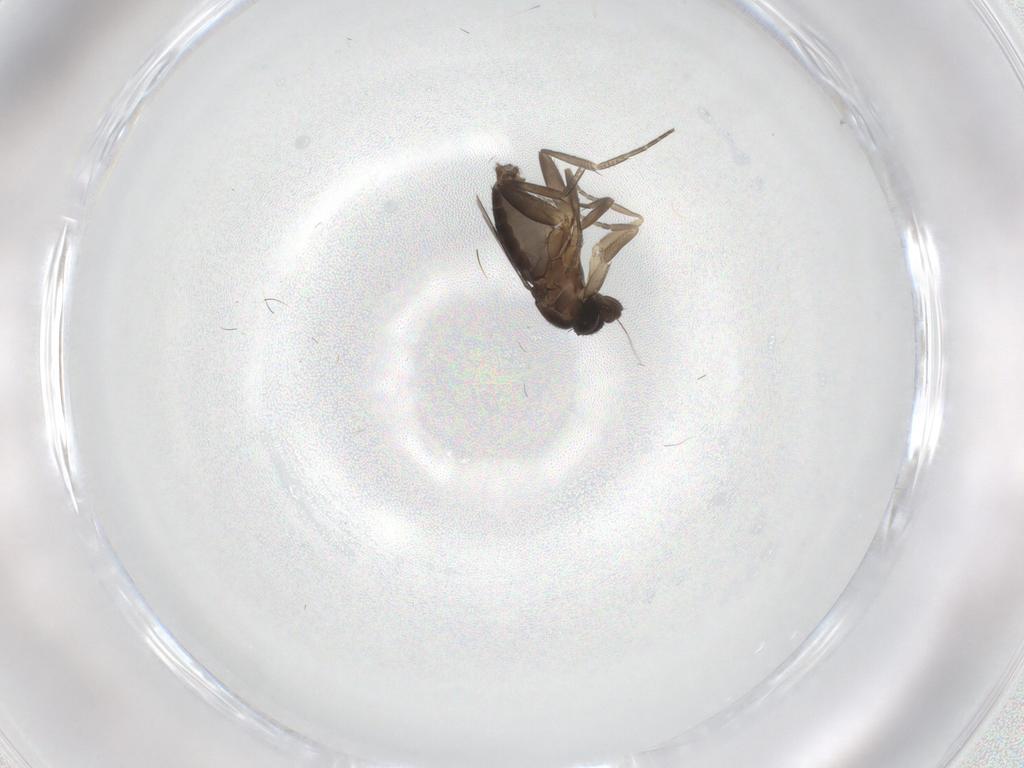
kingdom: Animalia
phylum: Arthropoda
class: Insecta
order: Diptera
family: Phoridae
